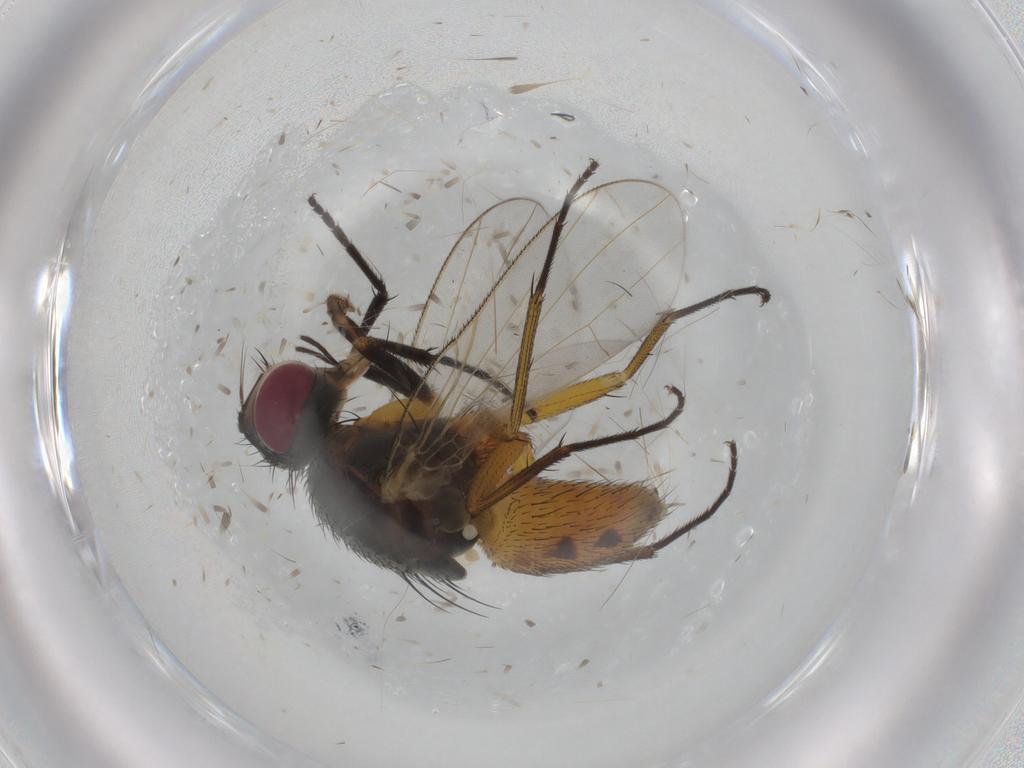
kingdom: Animalia
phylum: Arthropoda
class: Insecta
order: Diptera
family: Muscidae
